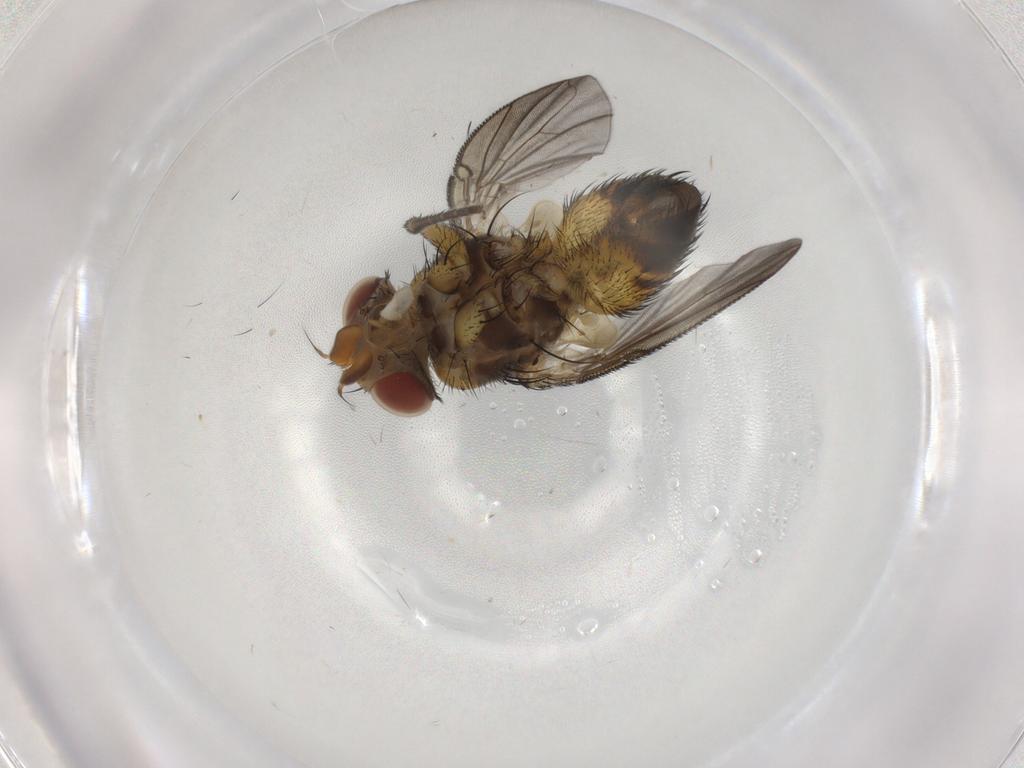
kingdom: Animalia
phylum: Arthropoda
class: Insecta
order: Diptera
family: Tachinidae
